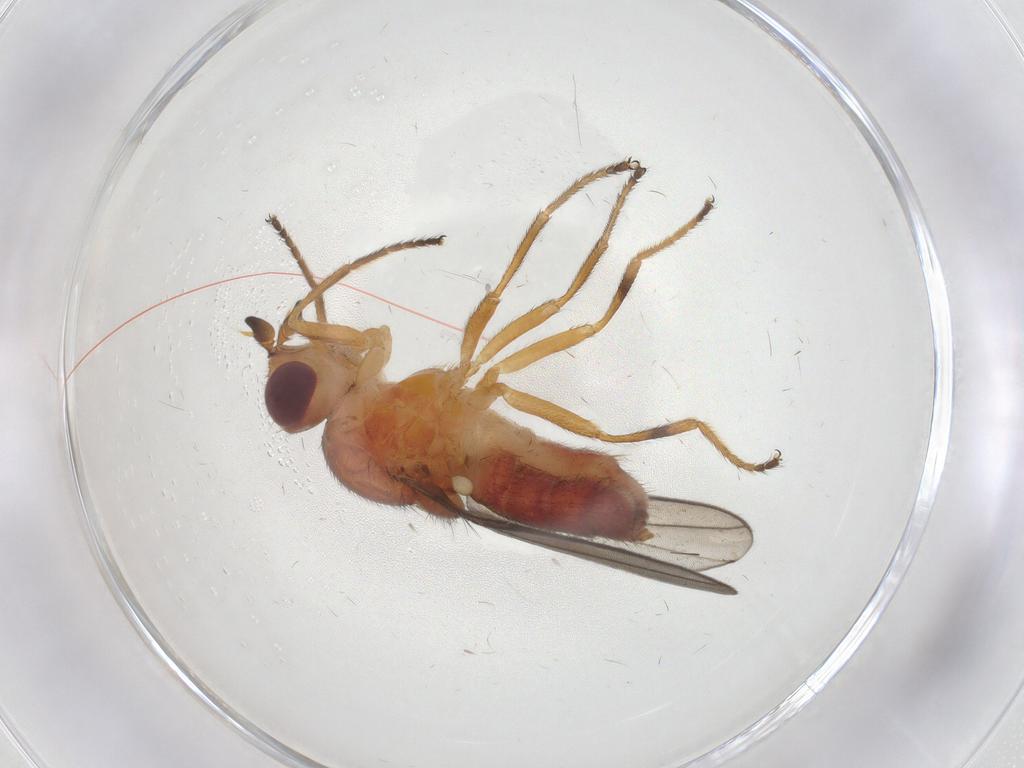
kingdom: Animalia
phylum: Arthropoda
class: Insecta
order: Diptera
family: Chloropidae
